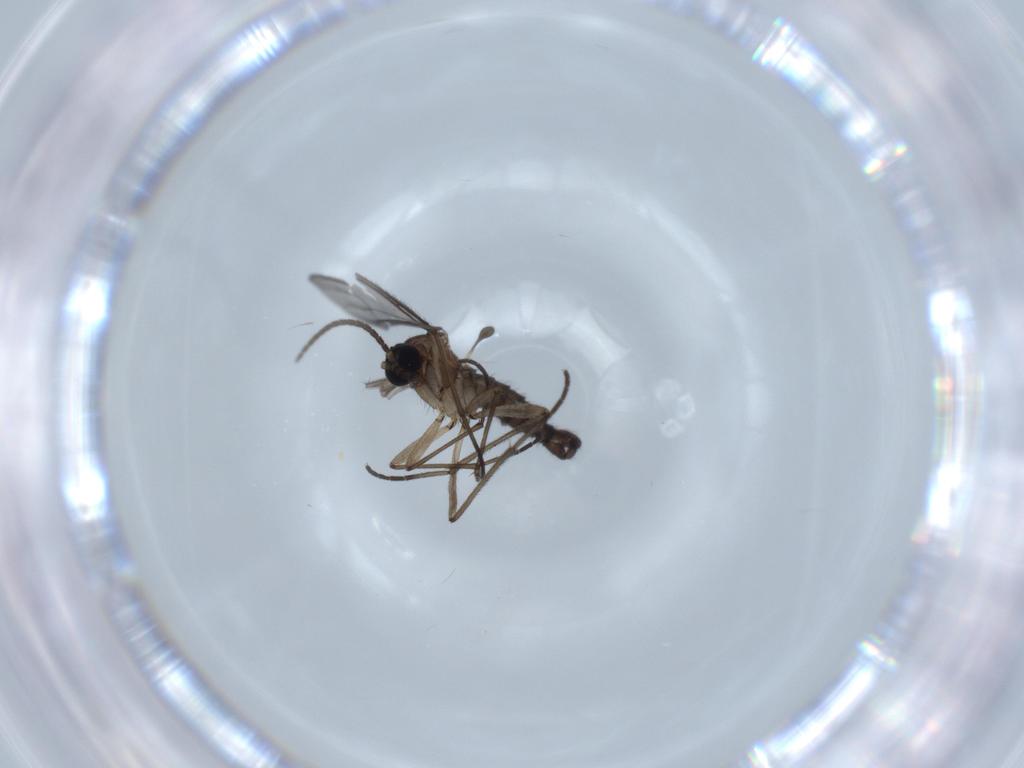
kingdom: Animalia
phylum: Arthropoda
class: Insecta
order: Diptera
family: Sciaridae
